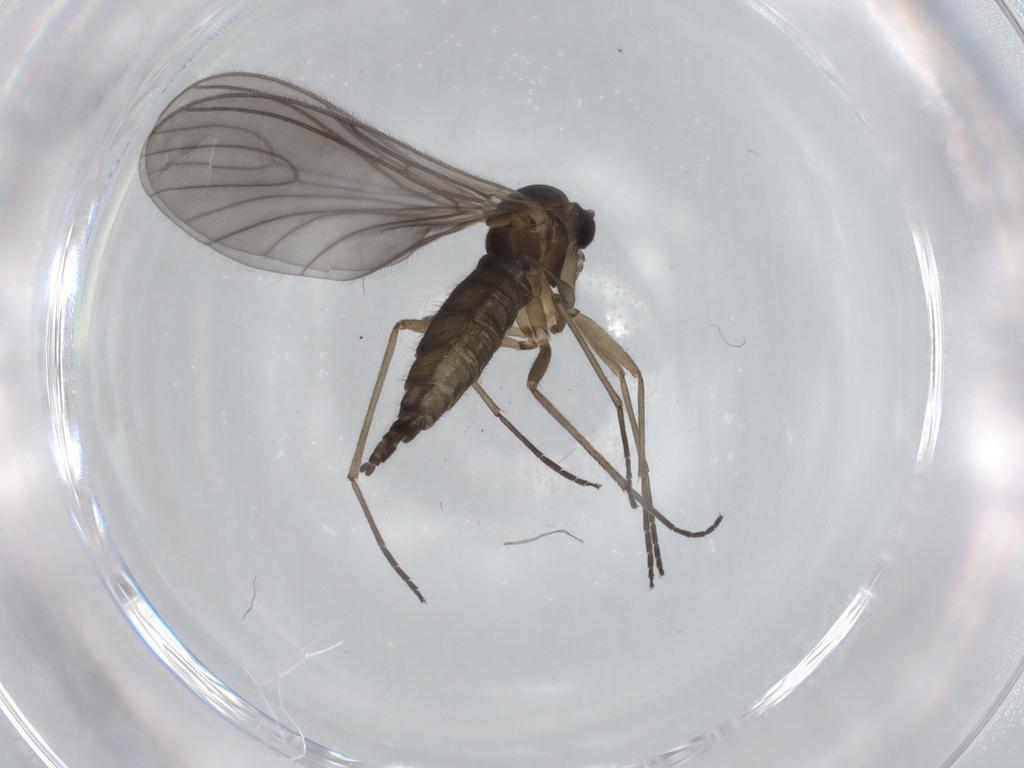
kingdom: Animalia
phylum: Arthropoda
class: Insecta
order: Diptera
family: Sciaridae
